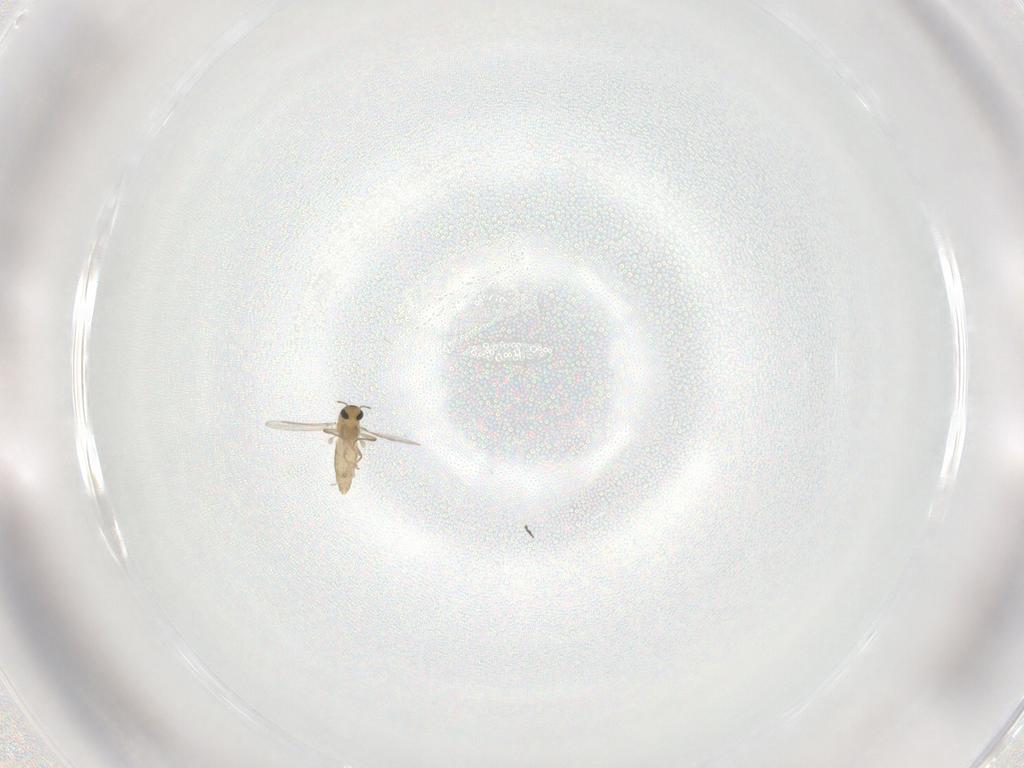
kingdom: Animalia
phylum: Arthropoda
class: Insecta
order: Diptera
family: Chironomidae
